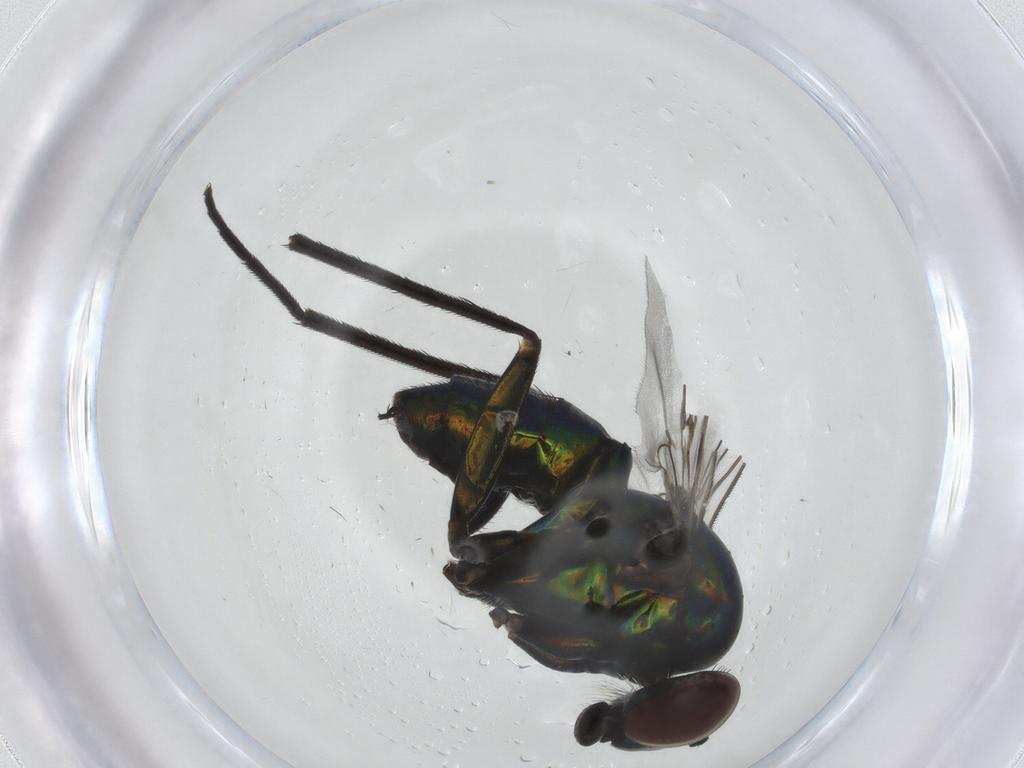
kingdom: Animalia
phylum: Arthropoda
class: Insecta
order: Diptera
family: Dolichopodidae
